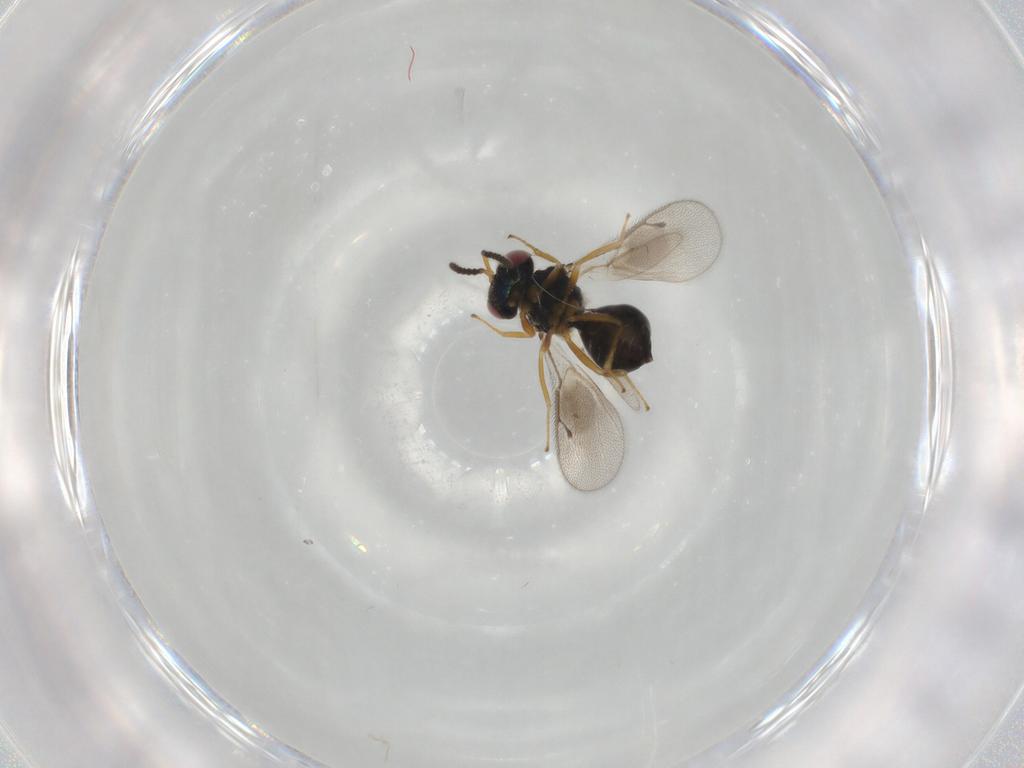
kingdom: Animalia
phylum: Arthropoda
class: Insecta
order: Hymenoptera
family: Pteromalidae
